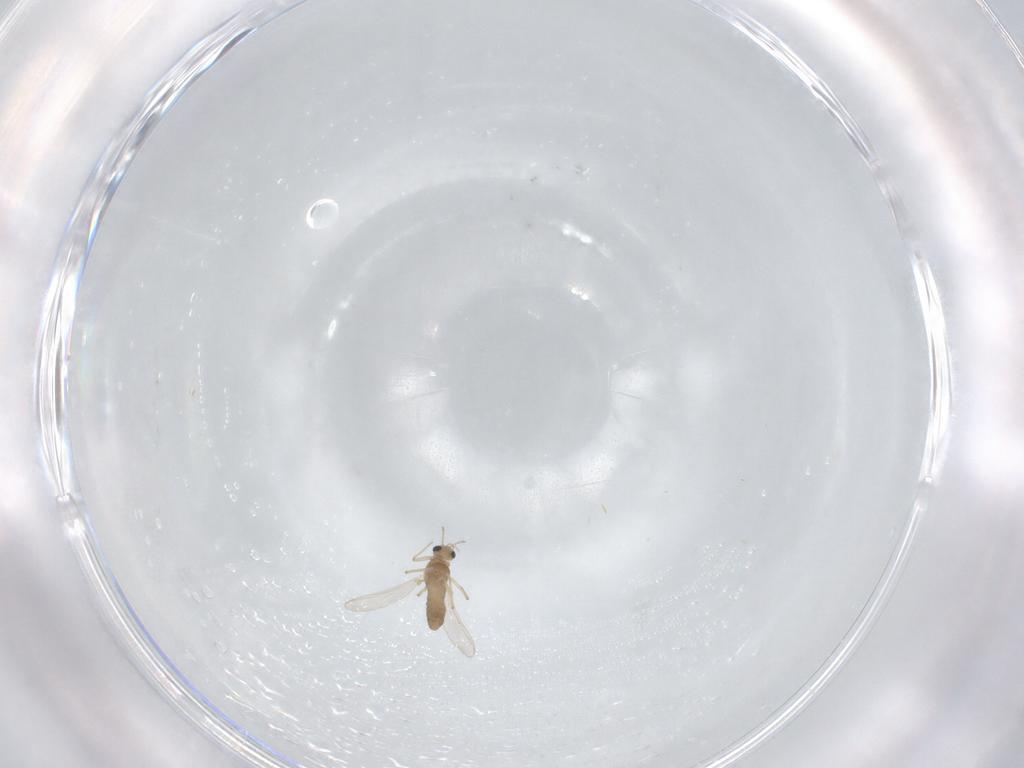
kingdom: Animalia
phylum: Arthropoda
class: Insecta
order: Diptera
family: Chironomidae
